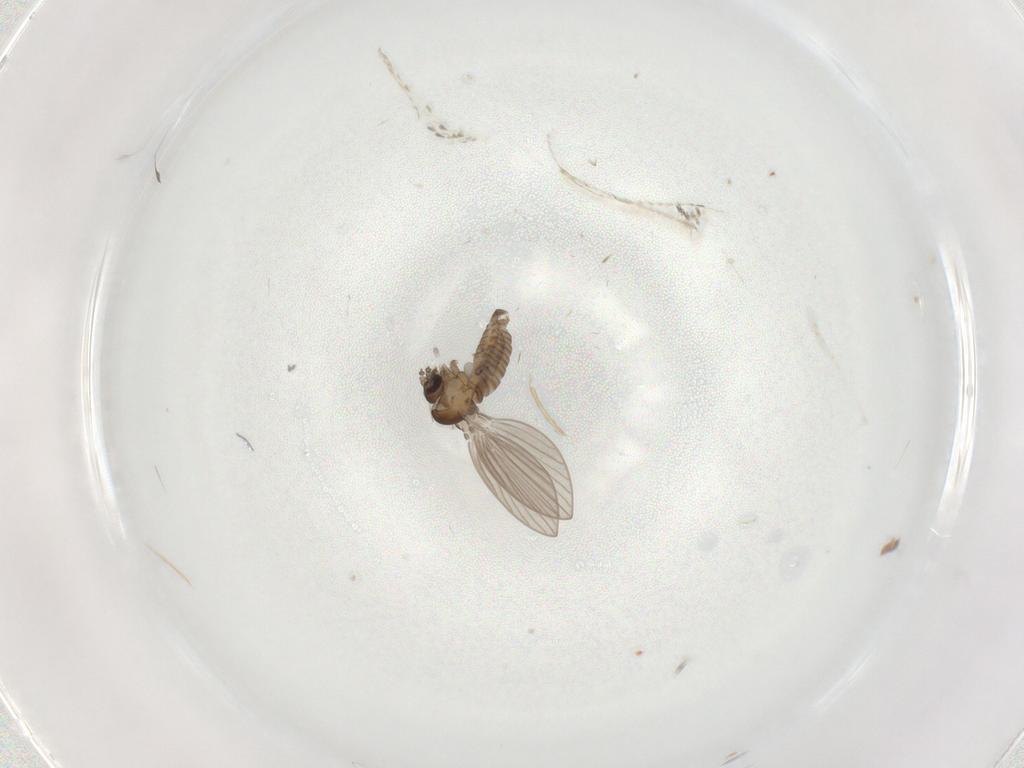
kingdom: Animalia
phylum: Arthropoda
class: Insecta
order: Diptera
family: Psychodidae
